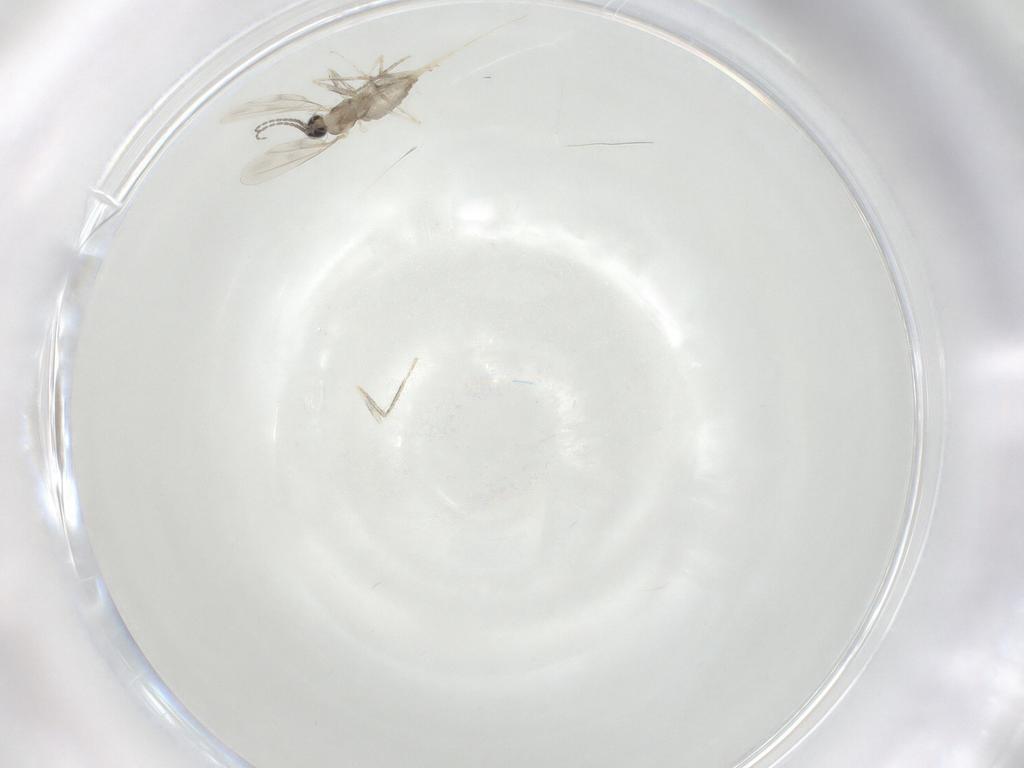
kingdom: Animalia
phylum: Arthropoda
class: Insecta
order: Diptera
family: Cecidomyiidae
